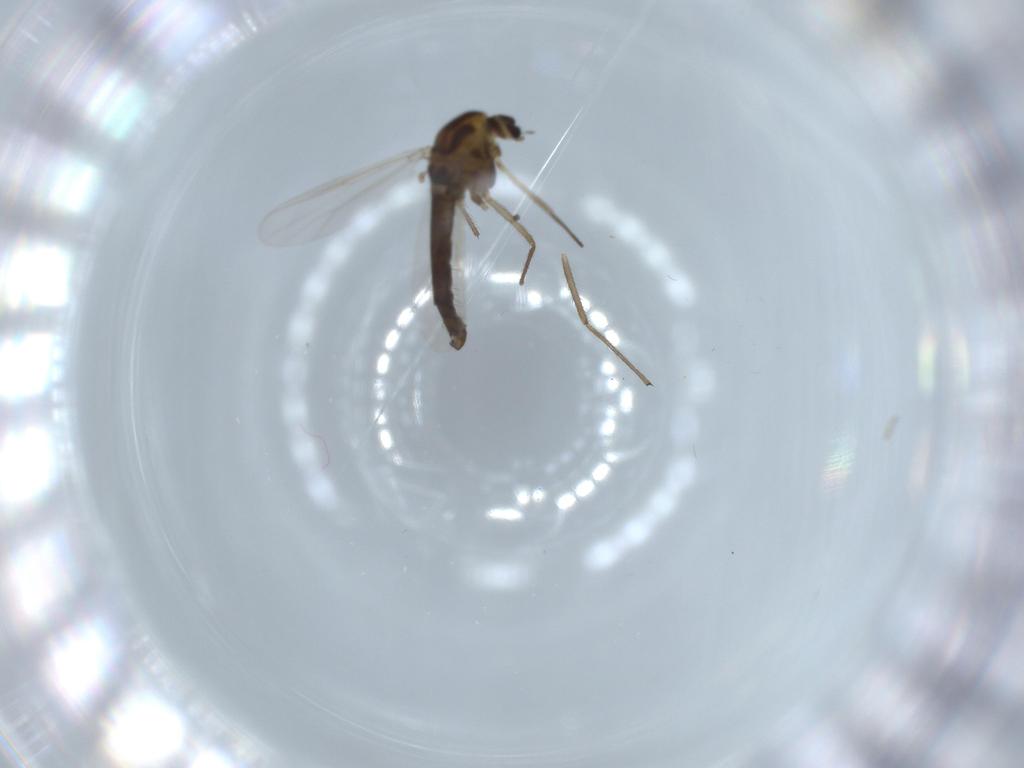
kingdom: Animalia
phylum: Arthropoda
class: Insecta
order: Diptera
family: Chironomidae
